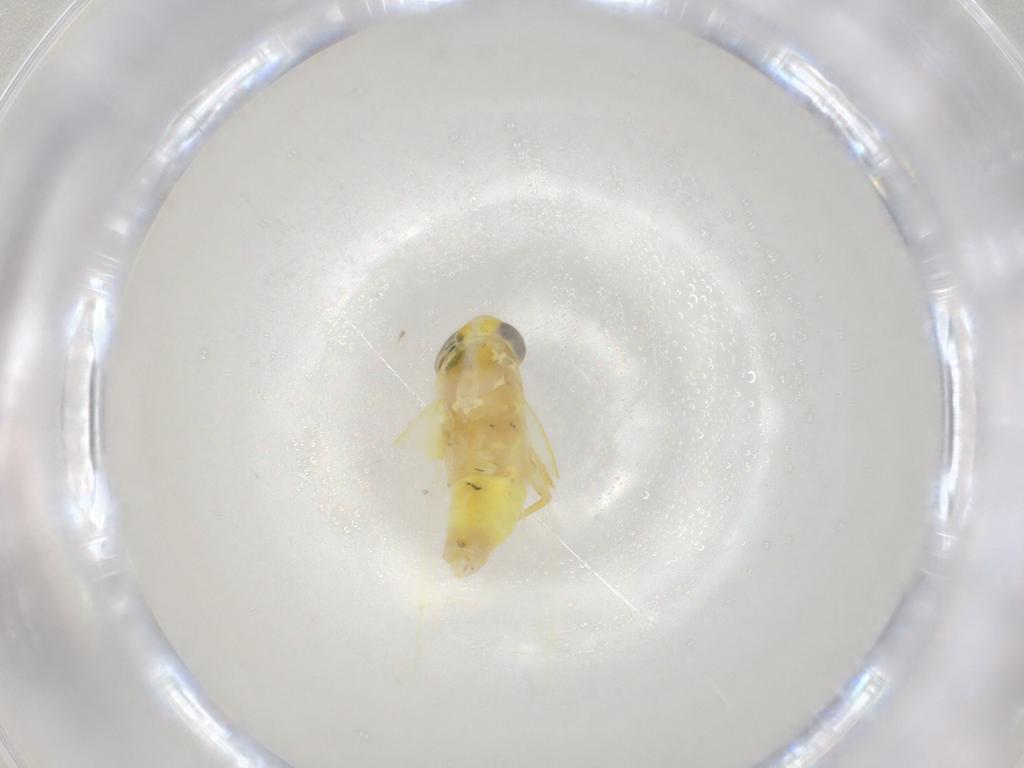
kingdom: Animalia
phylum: Arthropoda
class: Insecta
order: Hemiptera
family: Cicadellidae
